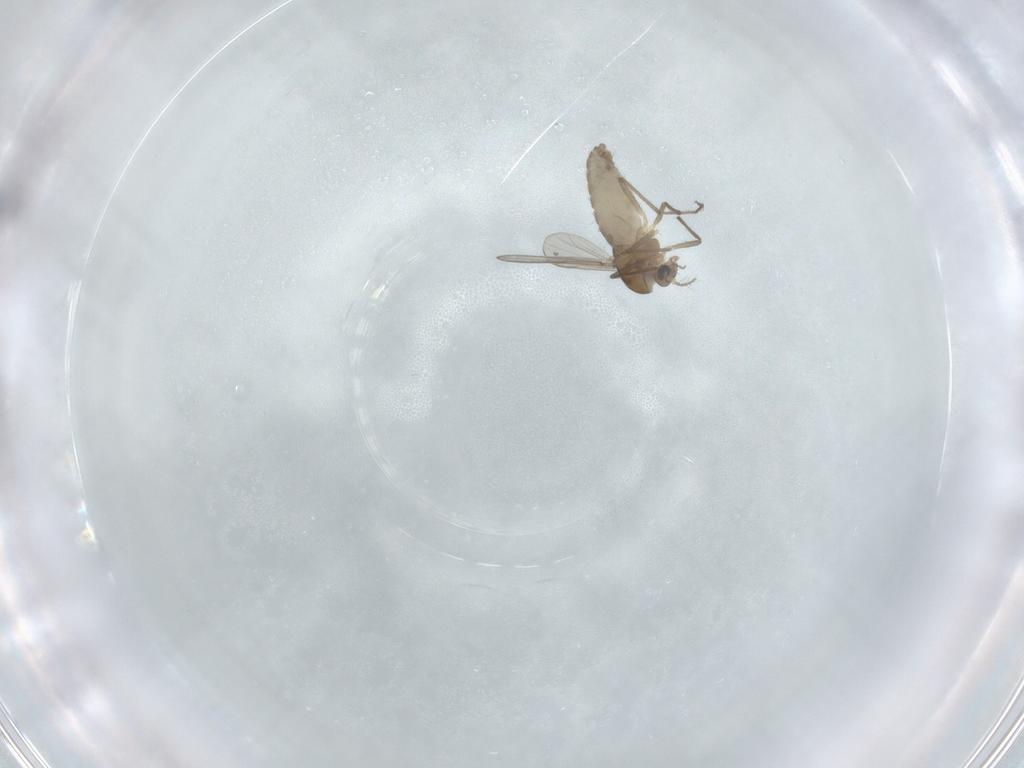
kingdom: Animalia
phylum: Arthropoda
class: Insecta
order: Diptera
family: Chironomidae
